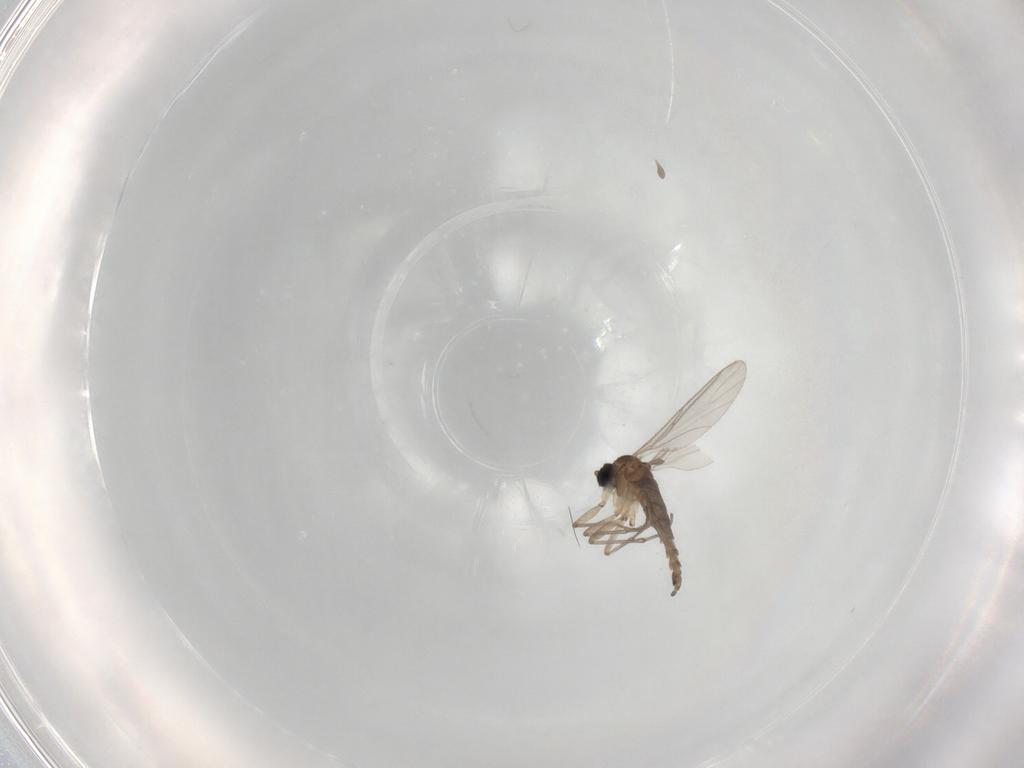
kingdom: Animalia
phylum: Arthropoda
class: Insecta
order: Diptera
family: Sciaridae
